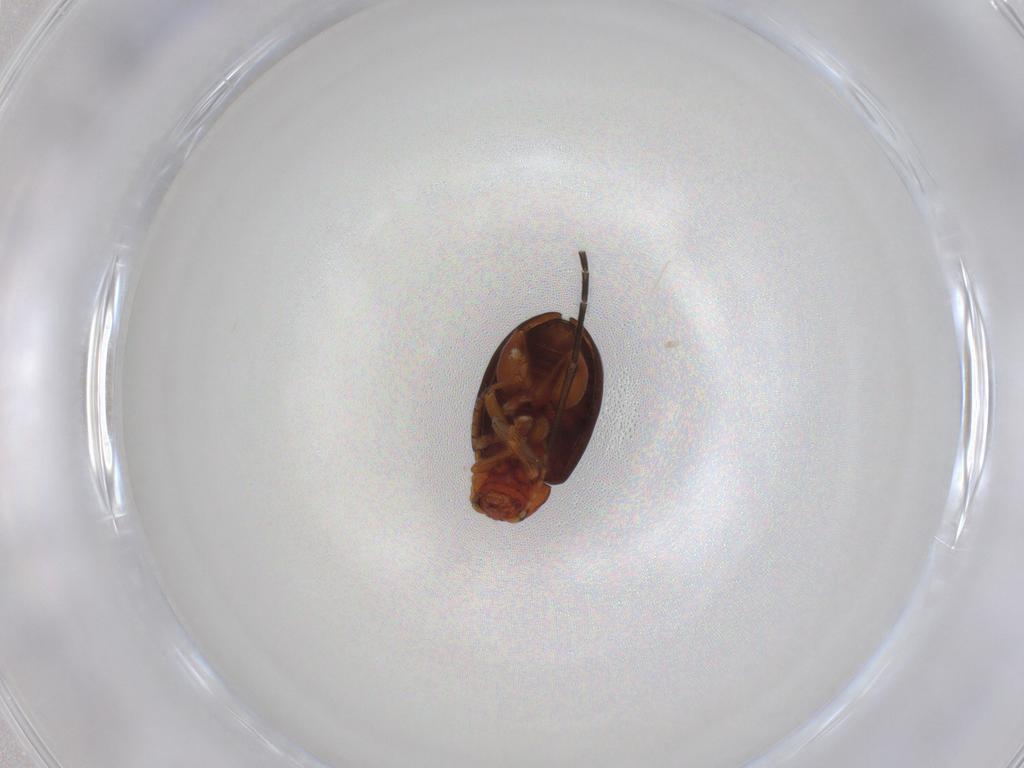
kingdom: Animalia
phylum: Arthropoda
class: Insecta
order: Coleoptera
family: Chrysomelidae
